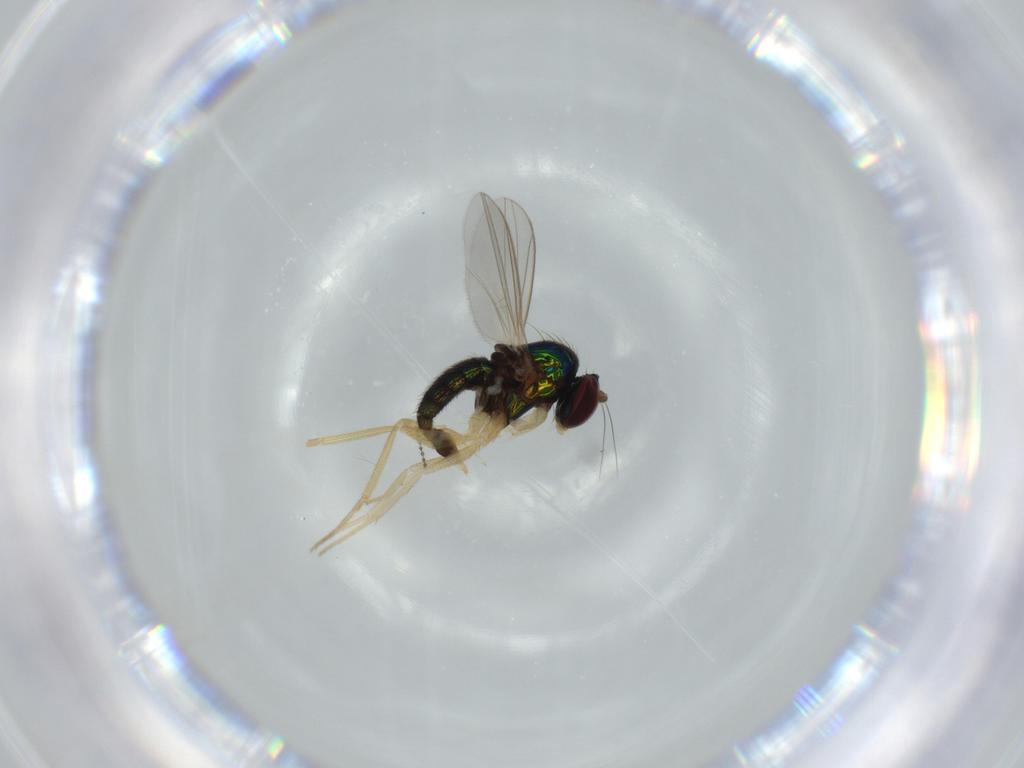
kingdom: Animalia
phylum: Arthropoda
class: Insecta
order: Diptera
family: Dolichopodidae
